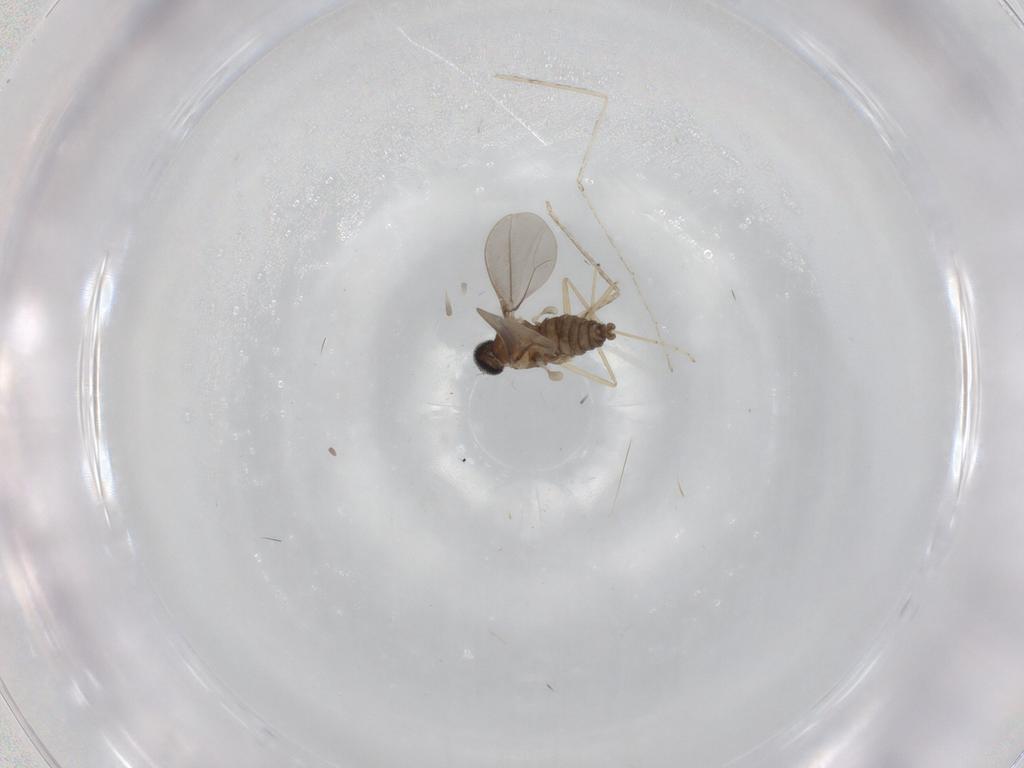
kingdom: Animalia
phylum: Arthropoda
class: Insecta
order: Diptera
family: Cecidomyiidae
